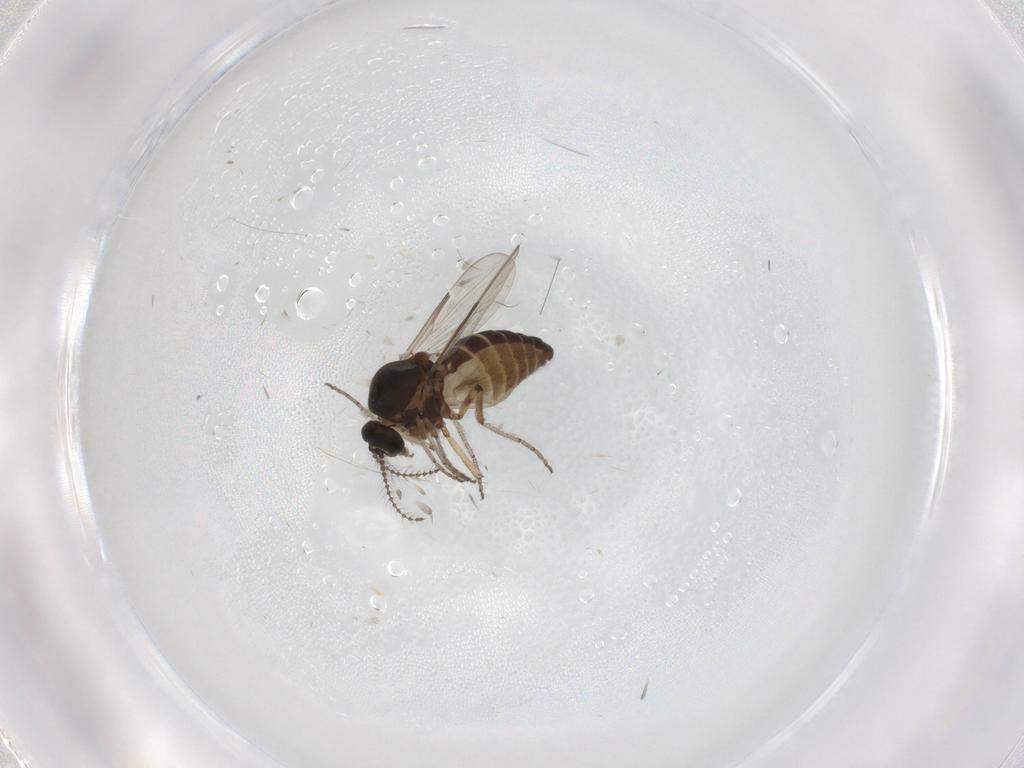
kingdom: Animalia
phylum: Arthropoda
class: Insecta
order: Diptera
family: Ceratopogonidae
